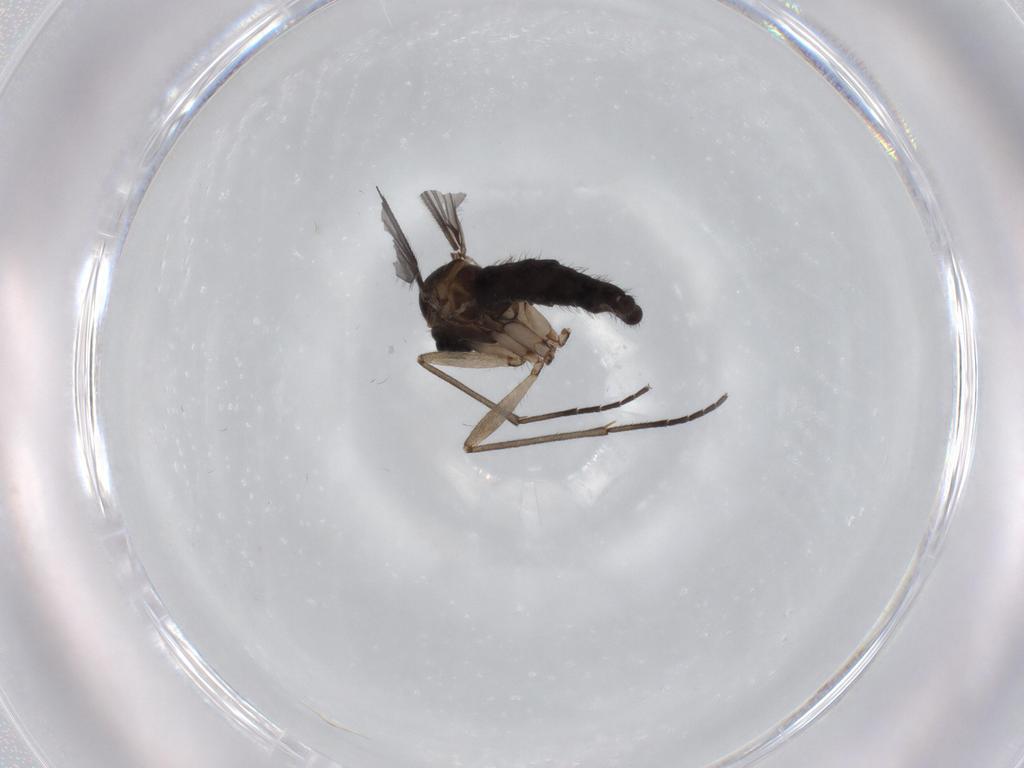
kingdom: Animalia
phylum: Arthropoda
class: Insecta
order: Diptera
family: Sciaridae
